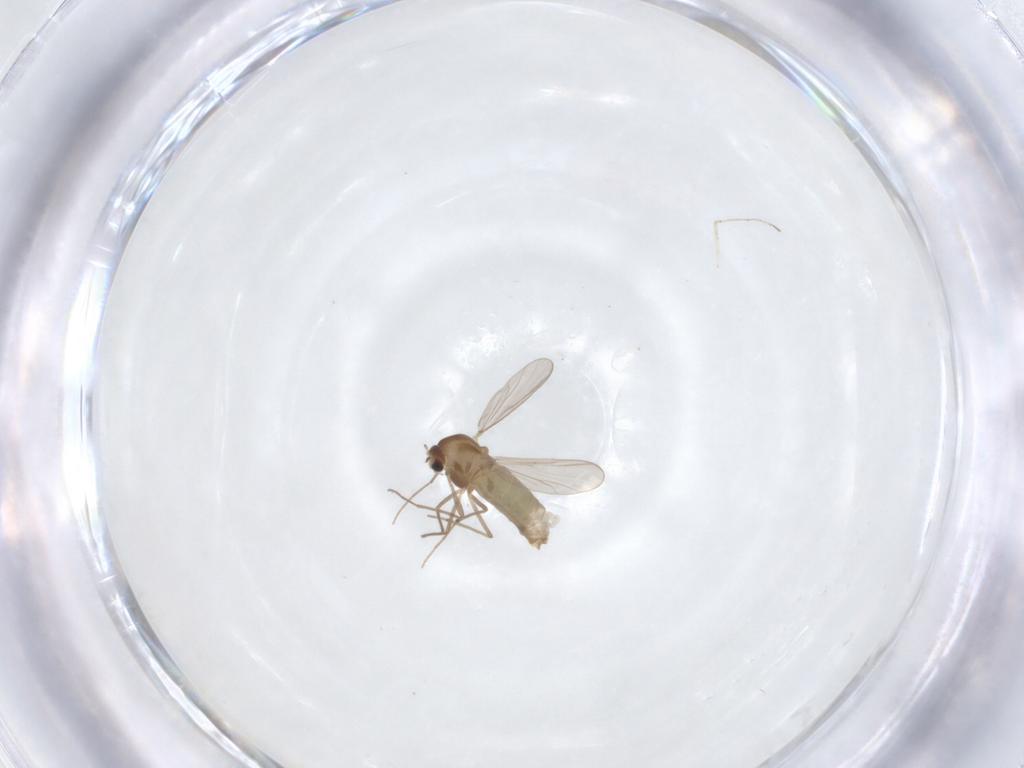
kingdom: Animalia
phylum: Arthropoda
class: Insecta
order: Diptera
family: Cecidomyiidae
